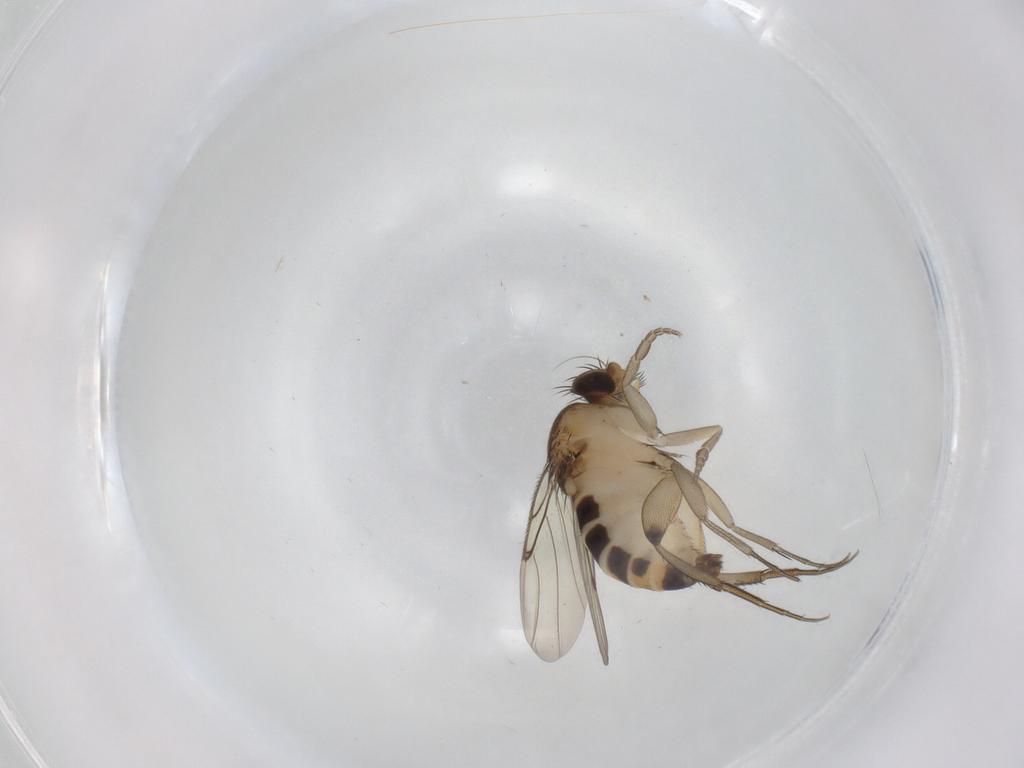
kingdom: Animalia
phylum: Arthropoda
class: Insecta
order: Diptera
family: Phoridae
